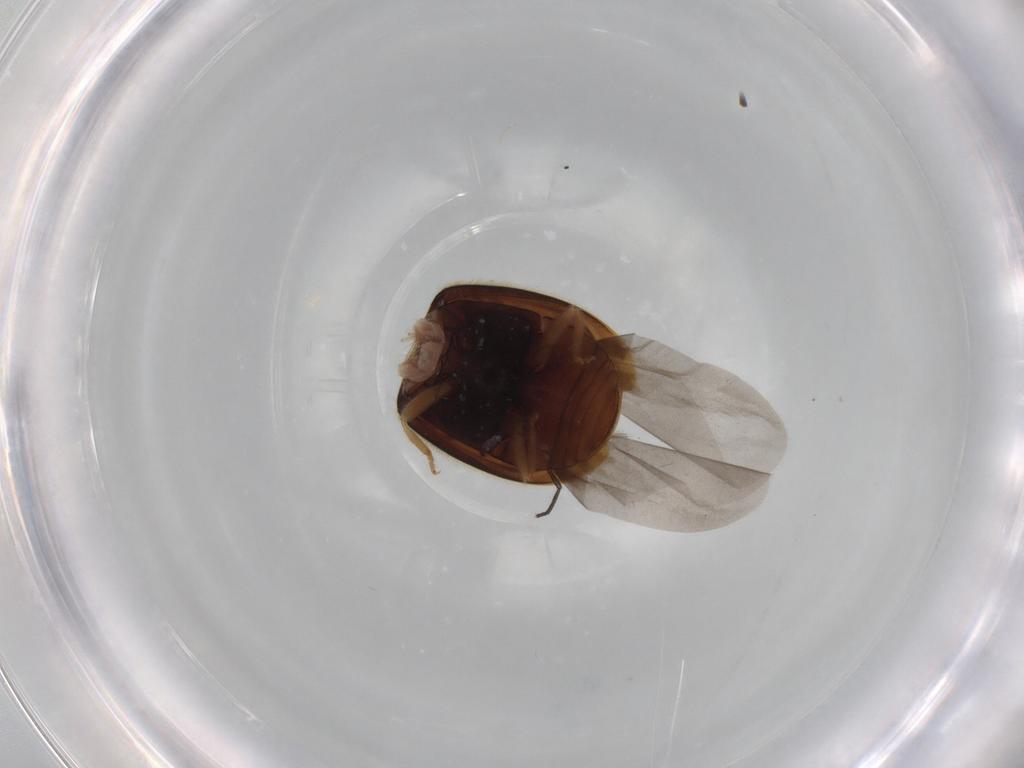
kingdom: Animalia
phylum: Arthropoda
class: Insecta
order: Coleoptera
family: Coccinellidae
